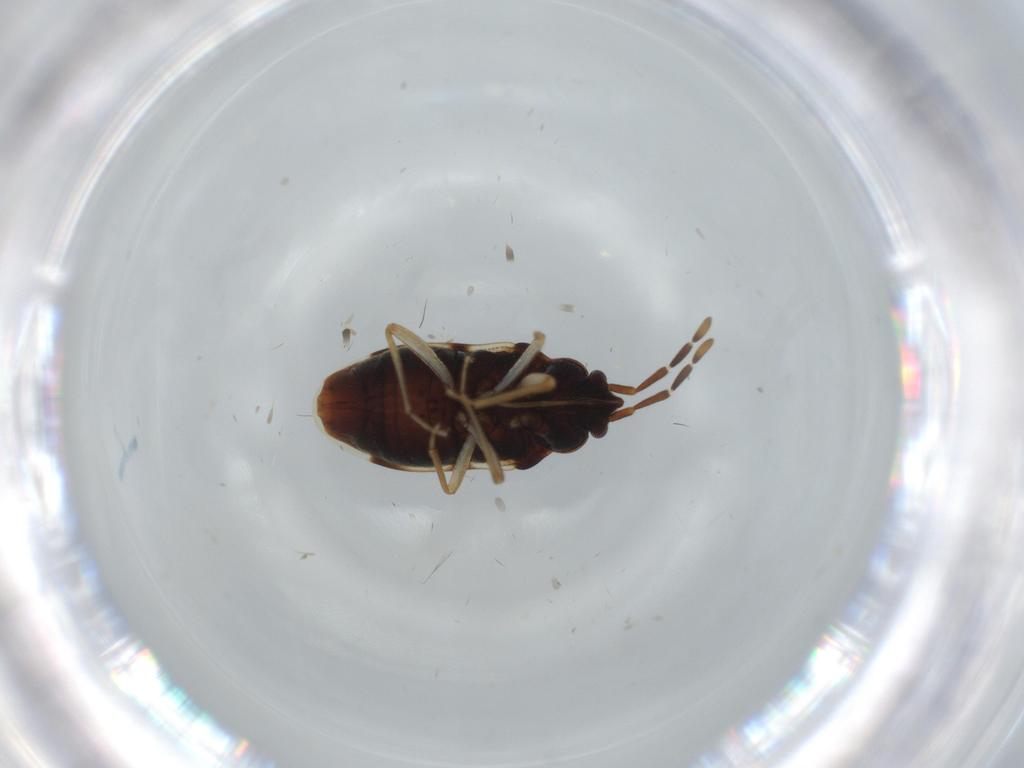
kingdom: Animalia
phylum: Arthropoda
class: Insecta
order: Hemiptera
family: Rhyparochromidae
